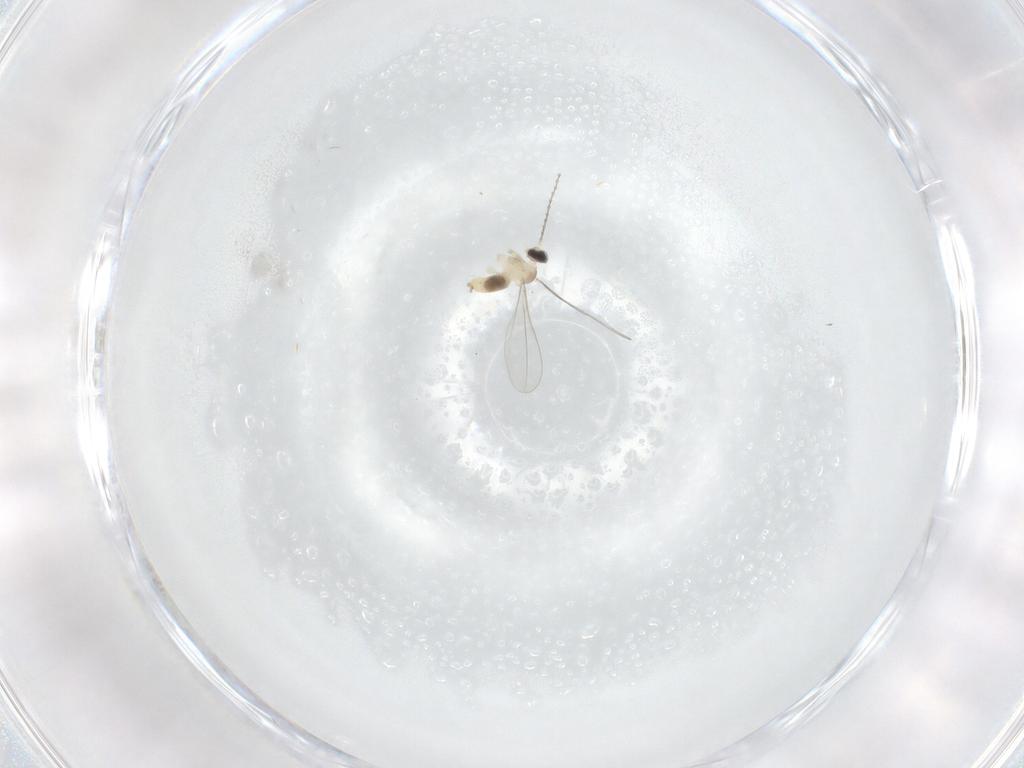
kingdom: Animalia
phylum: Arthropoda
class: Insecta
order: Diptera
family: Cecidomyiidae
